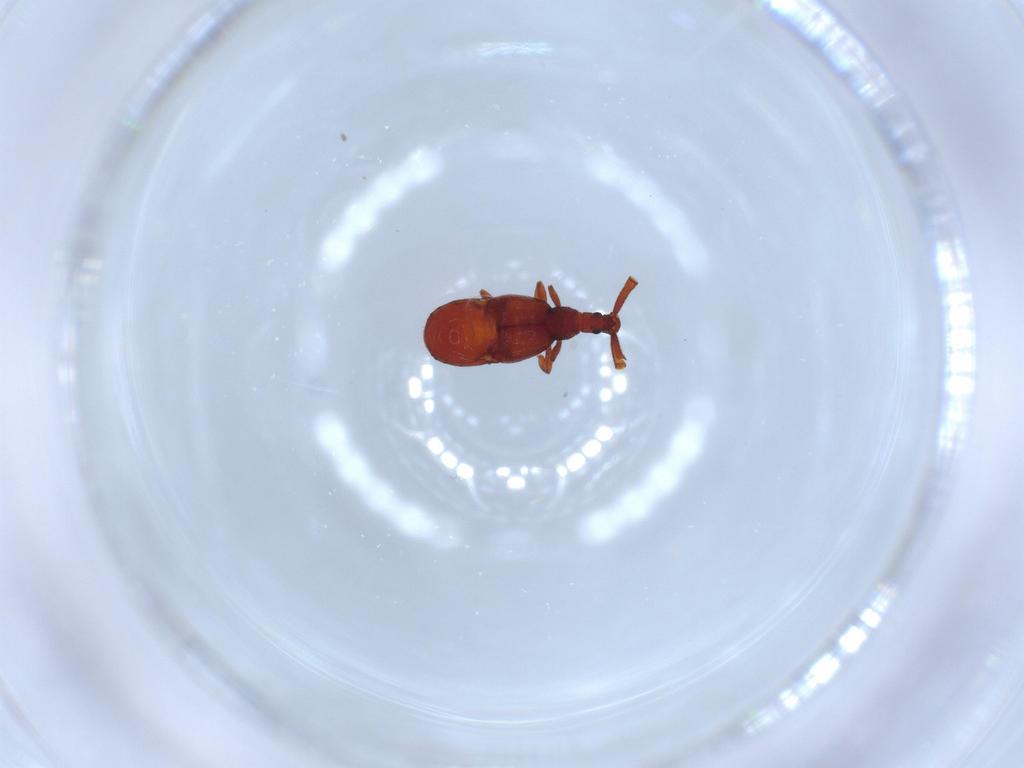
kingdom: Animalia
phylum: Arthropoda
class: Insecta
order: Coleoptera
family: Staphylinidae
